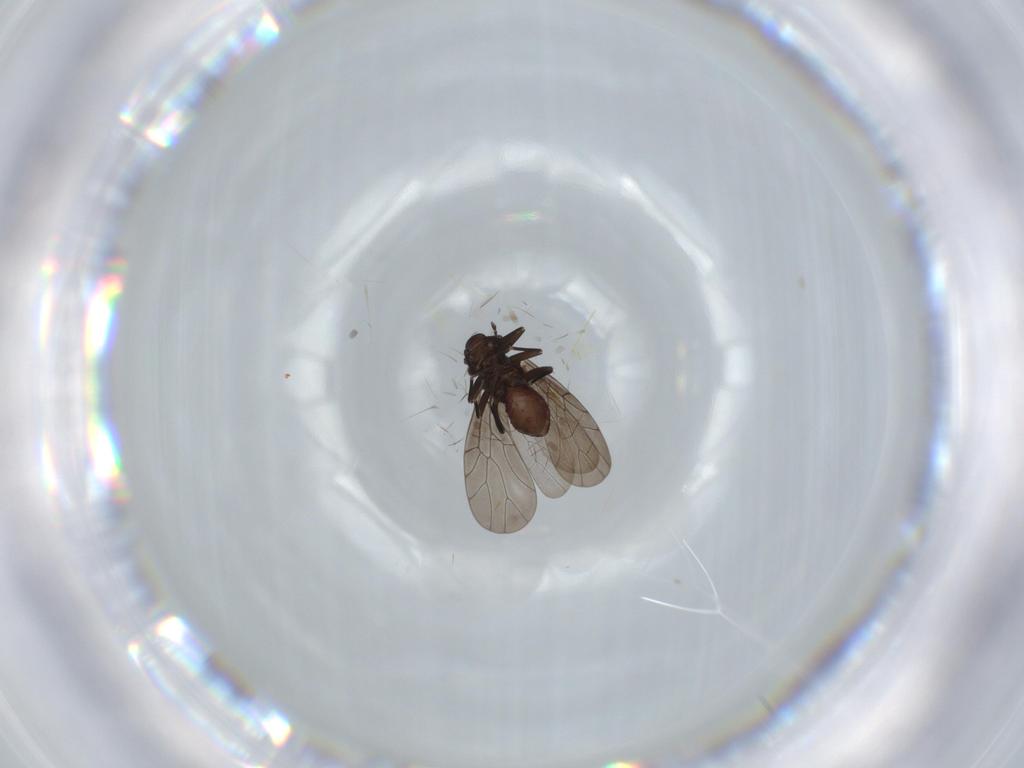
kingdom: Animalia
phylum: Arthropoda
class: Insecta
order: Psocodea
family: Lepidopsocidae
